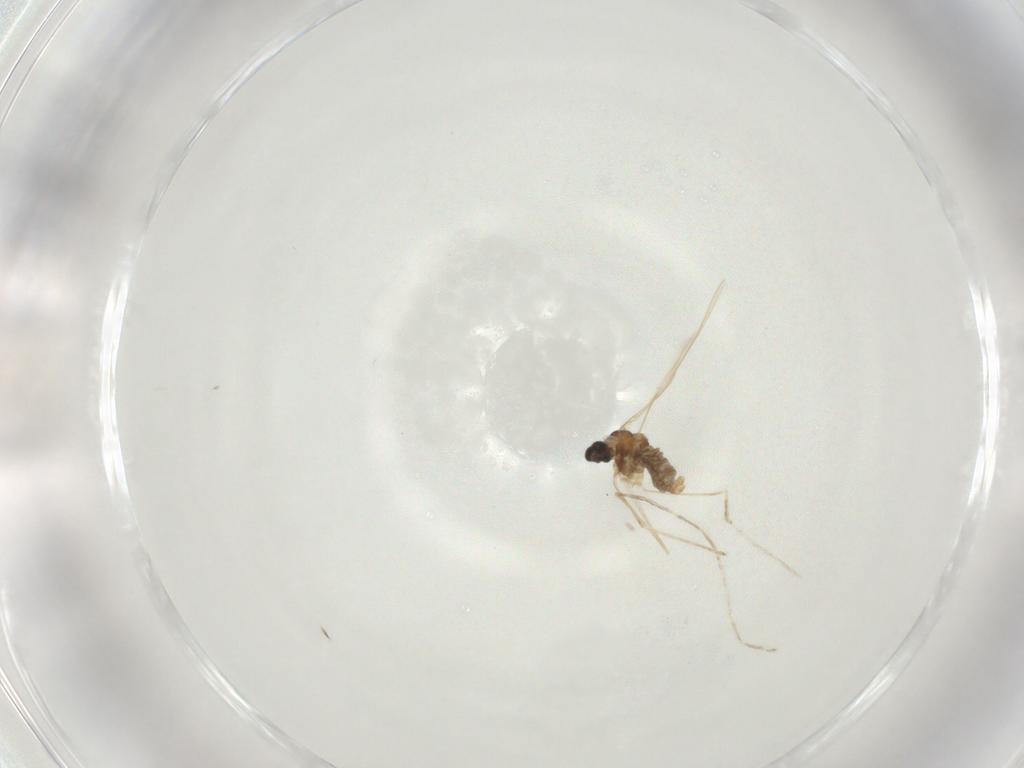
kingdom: Animalia
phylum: Arthropoda
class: Insecta
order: Diptera
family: Cecidomyiidae
